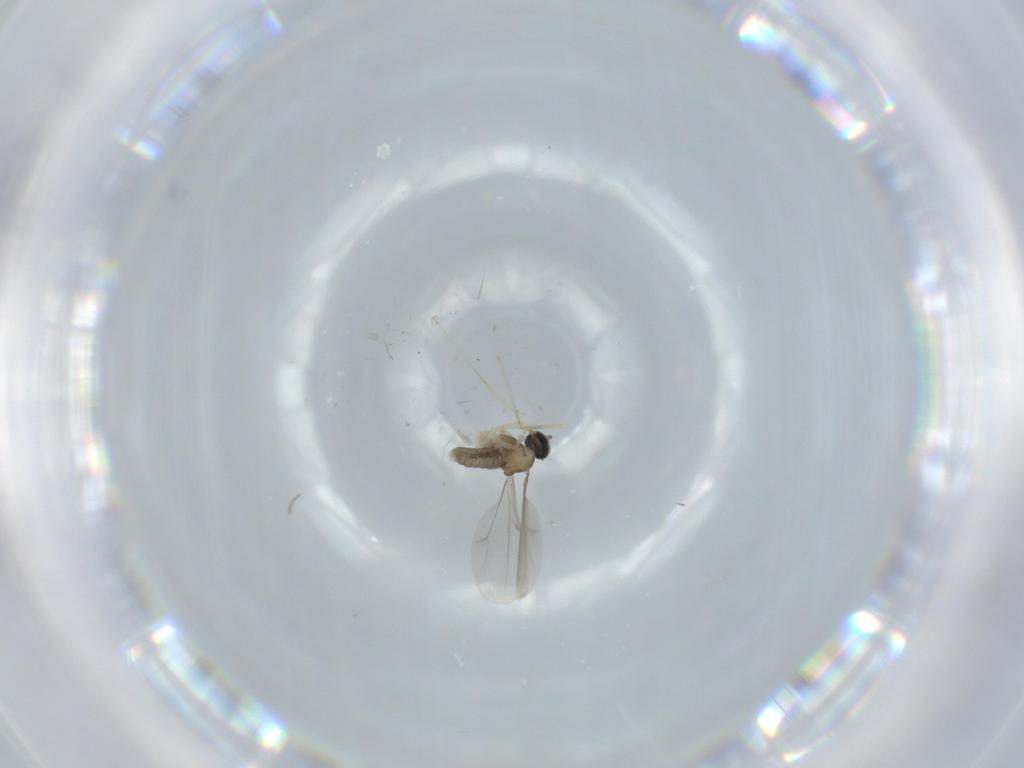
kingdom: Animalia
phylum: Arthropoda
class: Insecta
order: Diptera
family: Cecidomyiidae
